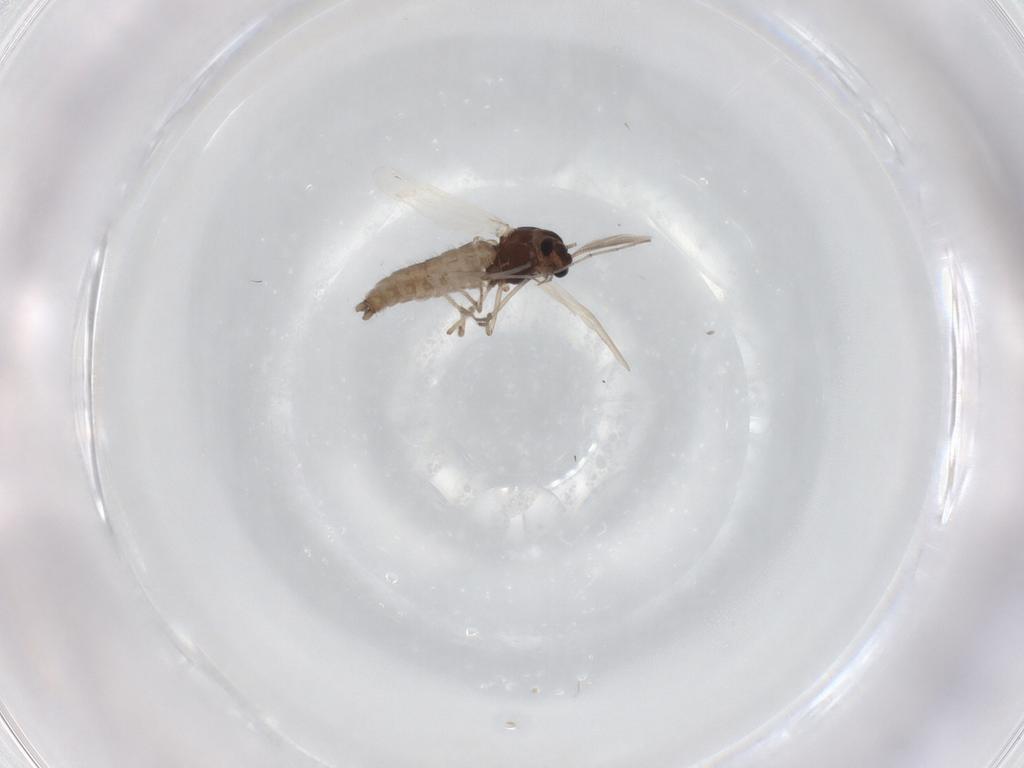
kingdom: Animalia
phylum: Arthropoda
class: Insecta
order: Diptera
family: Chironomidae
